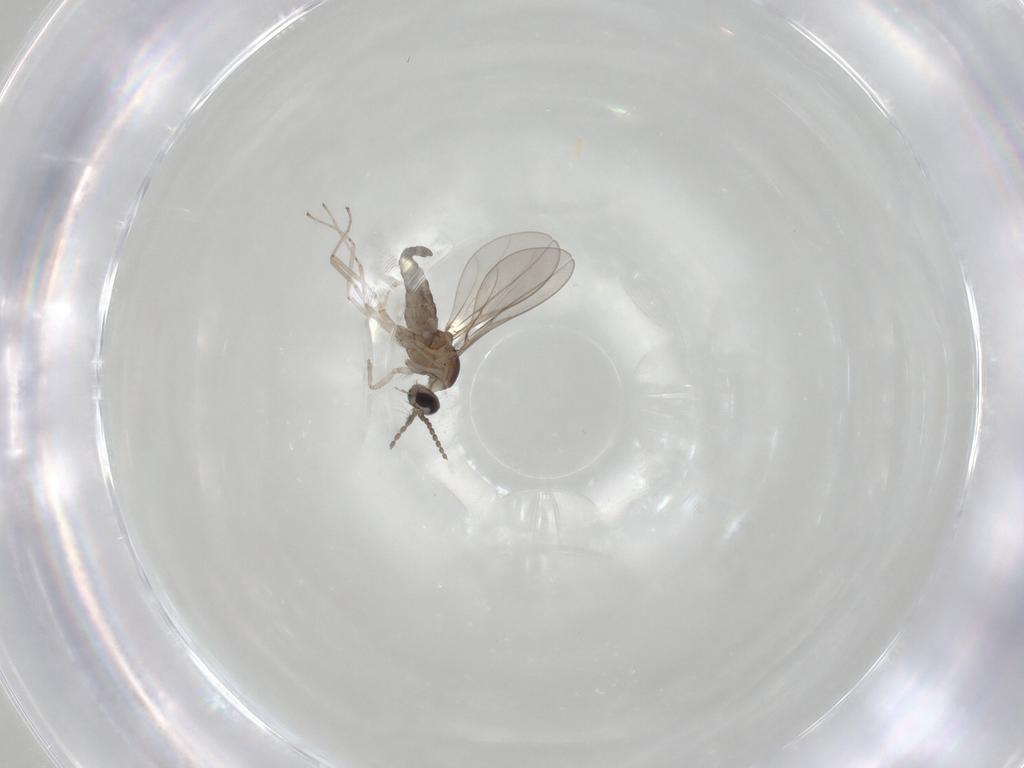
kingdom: Animalia
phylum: Arthropoda
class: Insecta
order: Diptera
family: Cecidomyiidae
